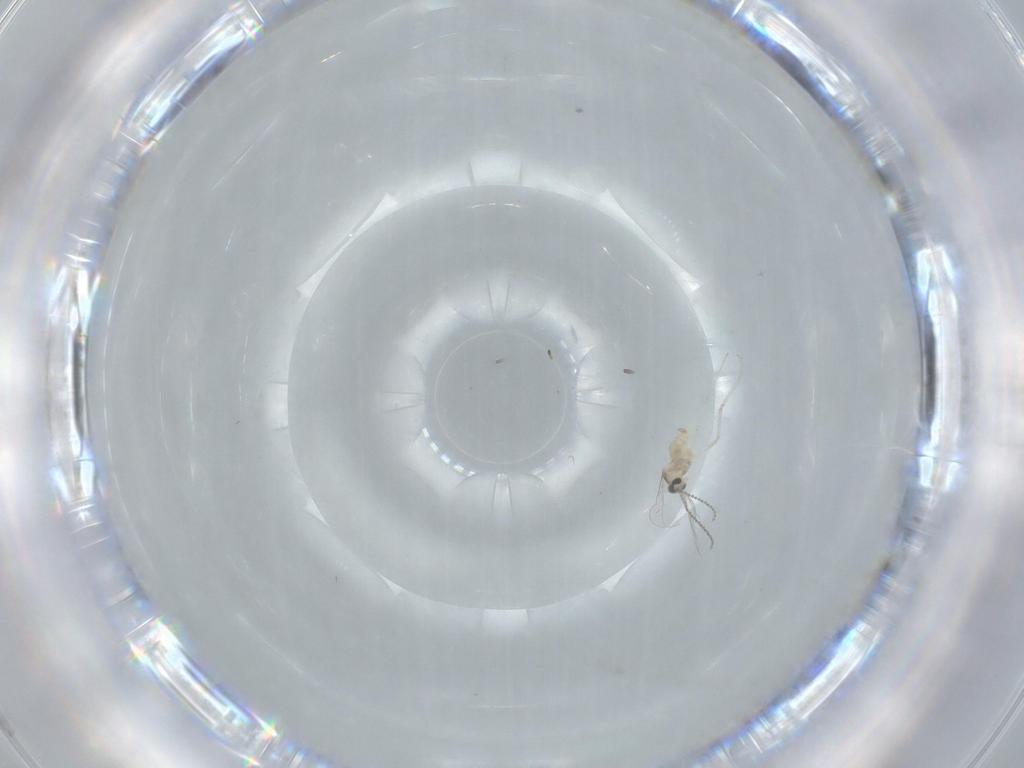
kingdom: Animalia
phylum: Arthropoda
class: Insecta
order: Diptera
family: Cecidomyiidae
